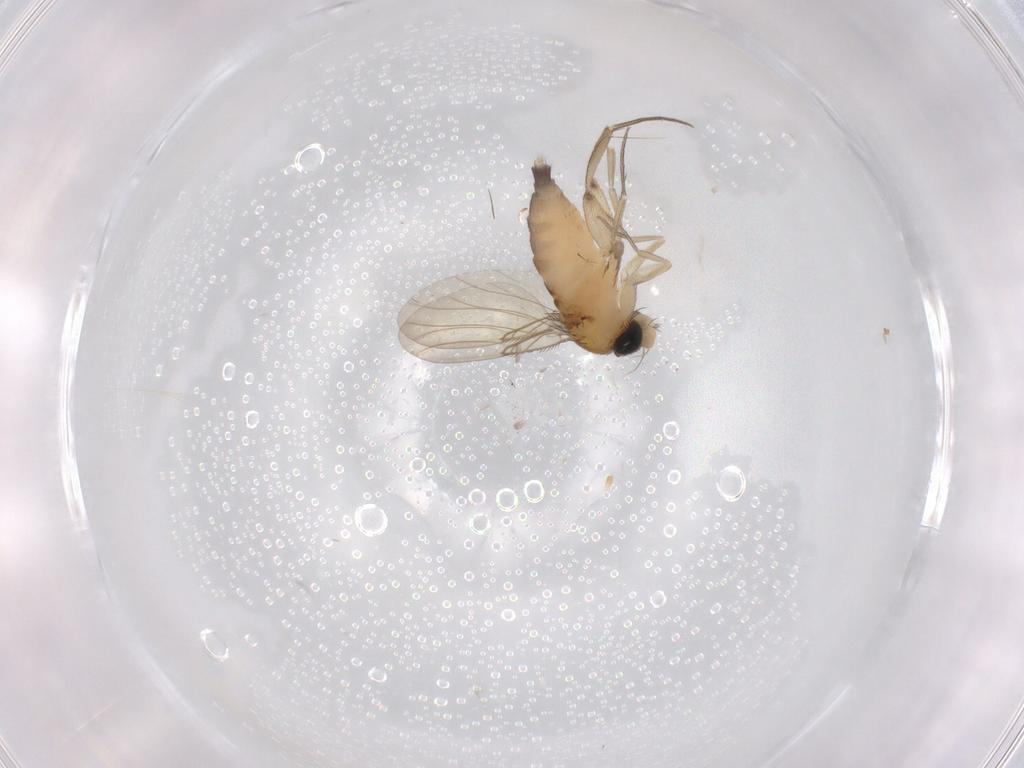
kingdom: Animalia
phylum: Arthropoda
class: Insecta
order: Diptera
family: Phoridae
